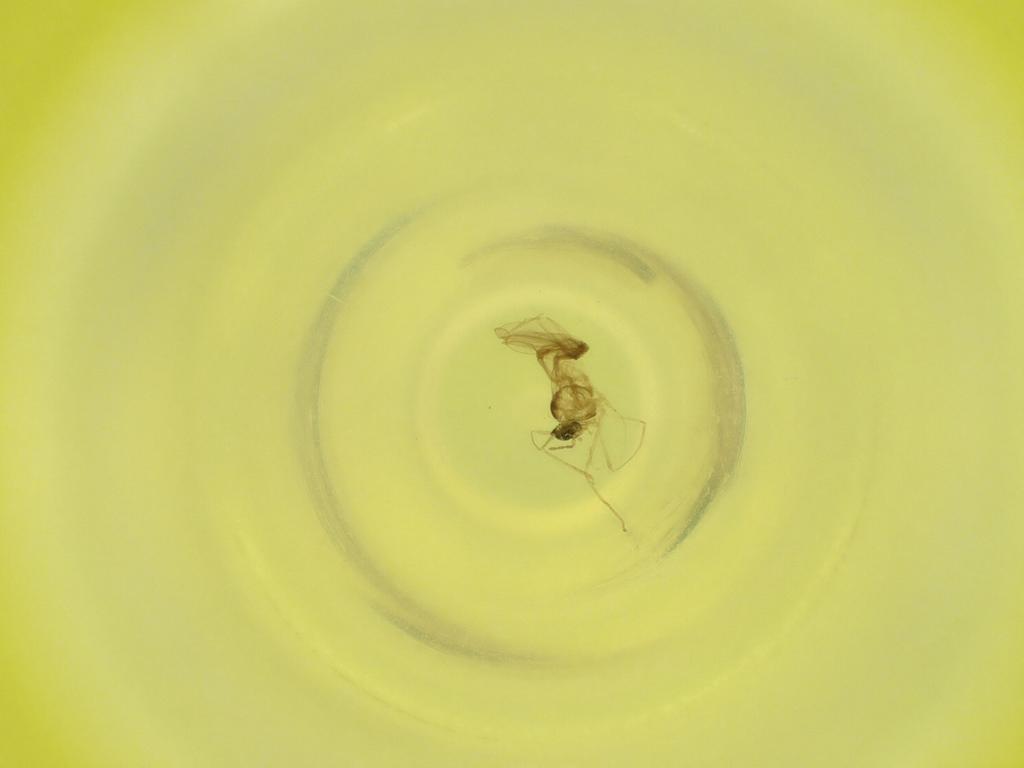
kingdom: Animalia
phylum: Arthropoda
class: Insecta
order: Diptera
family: Cecidomyiidae
